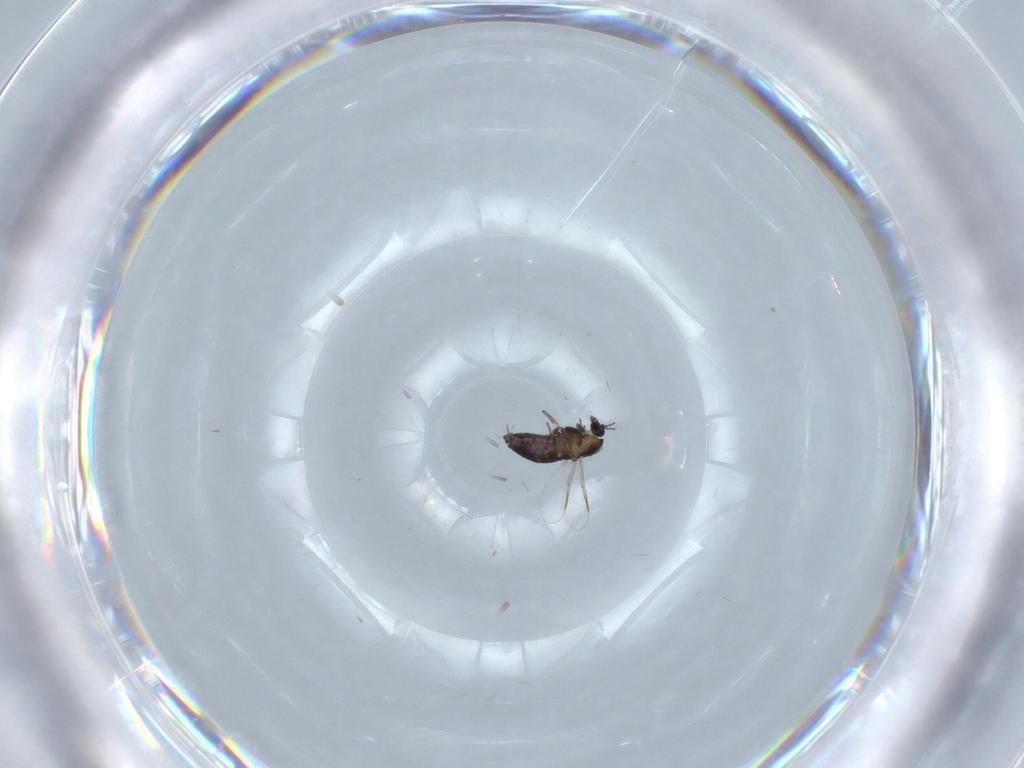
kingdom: Animalia
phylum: Arthropoda
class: Insecta
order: Diptera
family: Chironomidae
